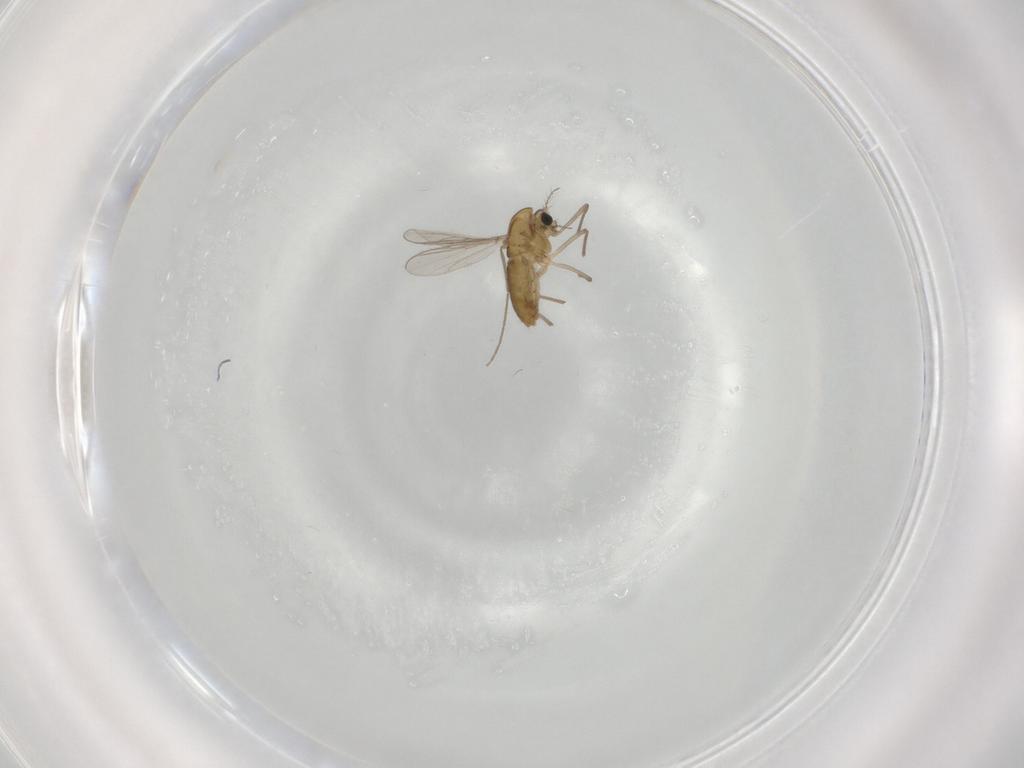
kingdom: Animalia
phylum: Arthropoda
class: Insecta
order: Diptera
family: Chironomidae
